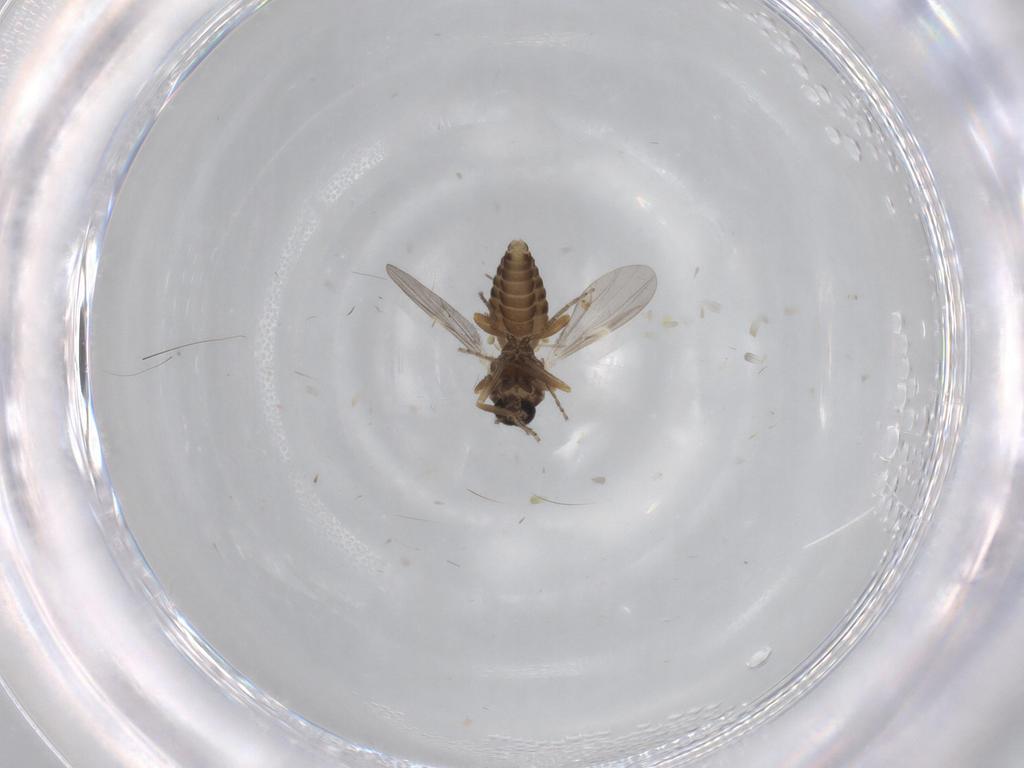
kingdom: Animalia
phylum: Arthropoda
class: Insecta
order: Diptera
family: Ceratopogonidae
